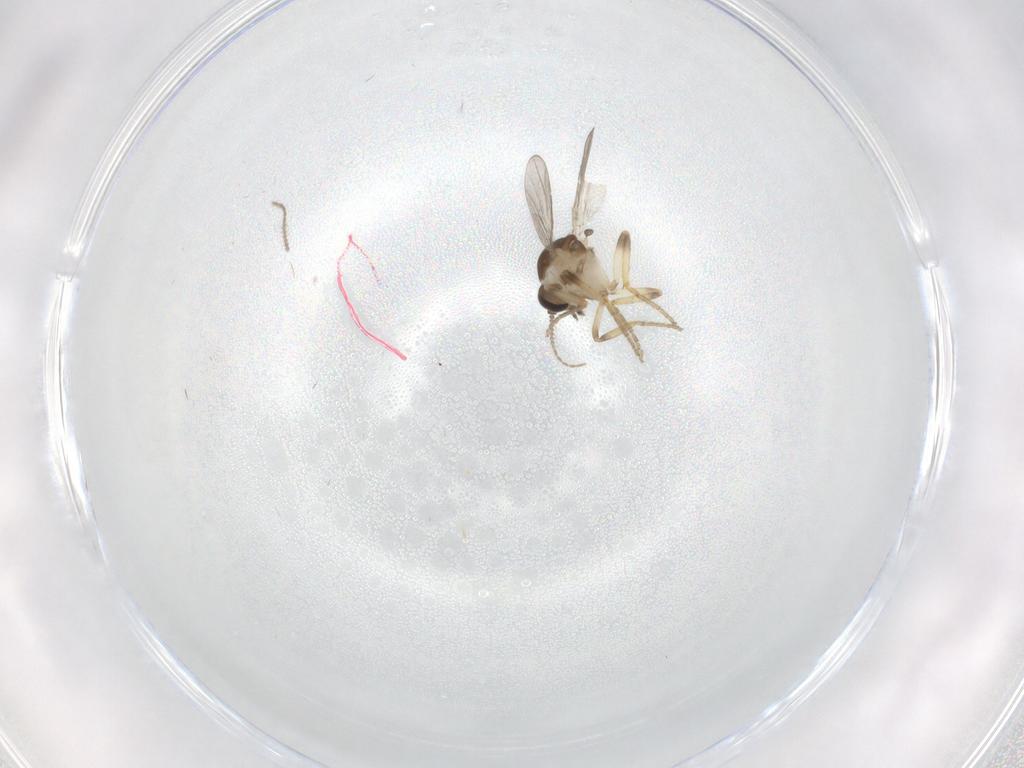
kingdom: Animalia
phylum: Arthropoda
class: Insecta
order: Diptera
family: Ceratopogonidae
